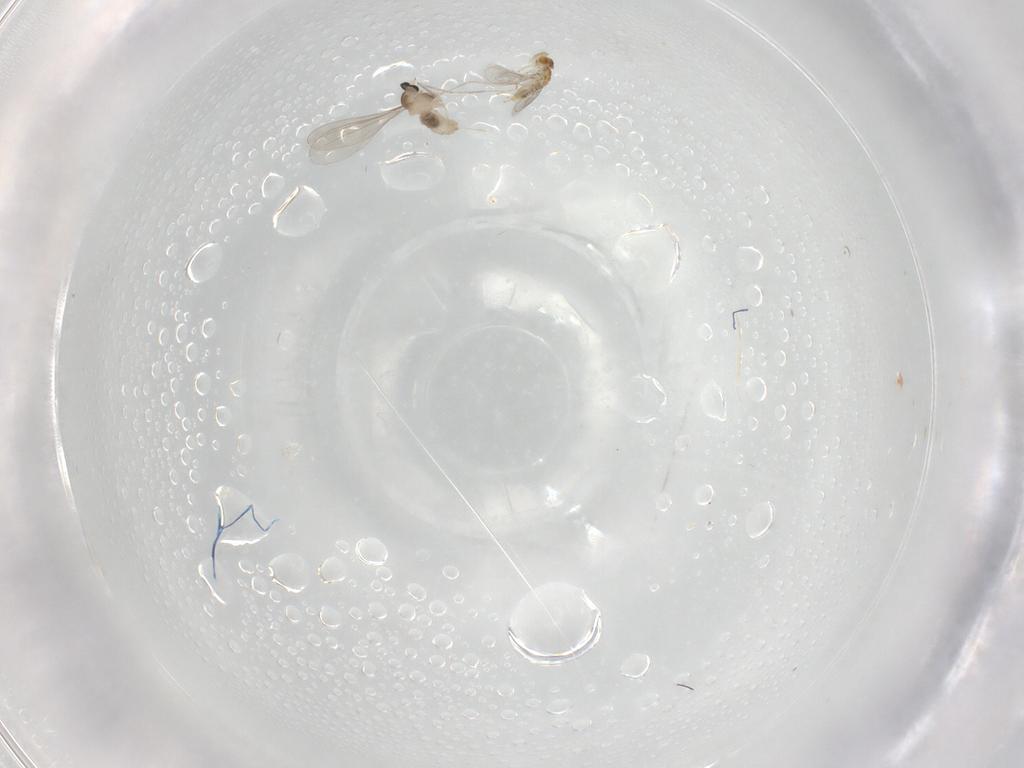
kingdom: Animalia
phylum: Arthropoda
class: Insecta
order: Diptera
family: Cecidomyiidae
